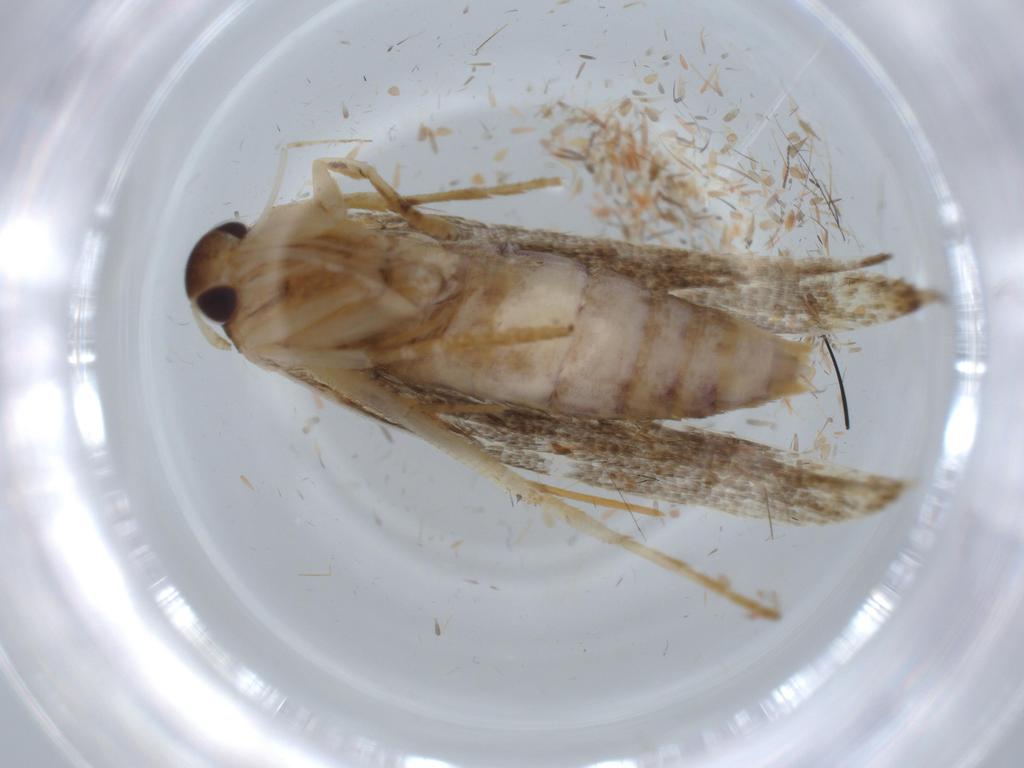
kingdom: Animalia
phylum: Arthropoda
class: Insecta
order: Lepidoptera
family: Stathmopodidae
